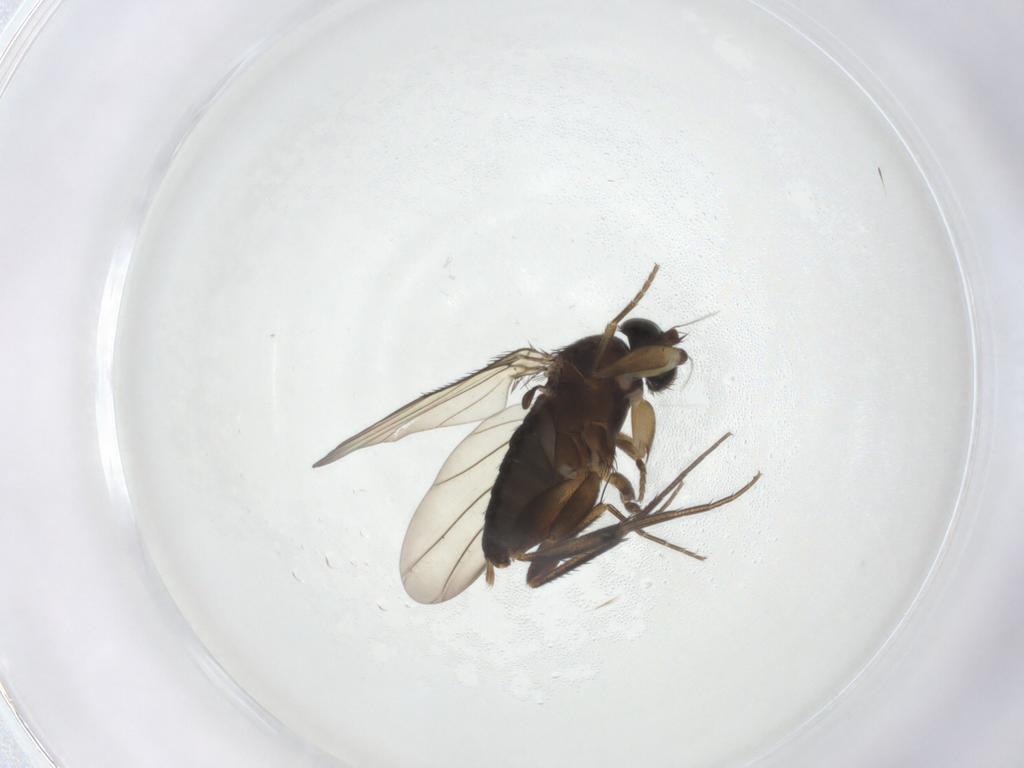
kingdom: Animalia
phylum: Arthropoda
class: Insecta
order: Diptera
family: Phoridae
